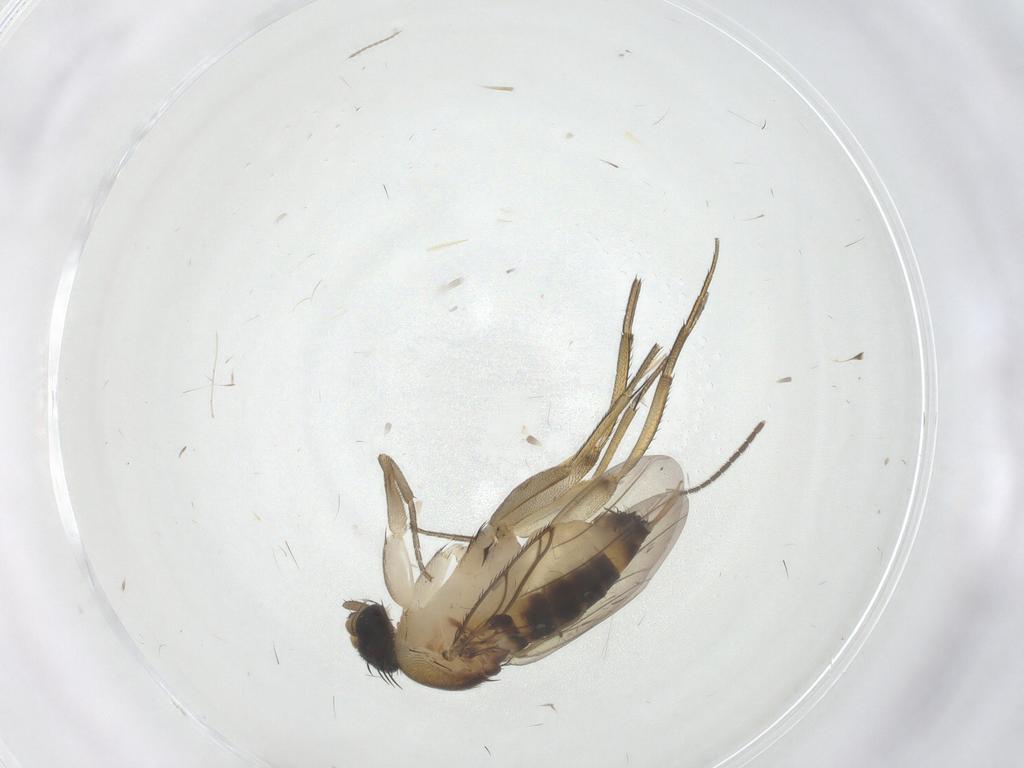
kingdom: Animalia
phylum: Arthropoda
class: Insecta
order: Diptera
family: Phoridae
